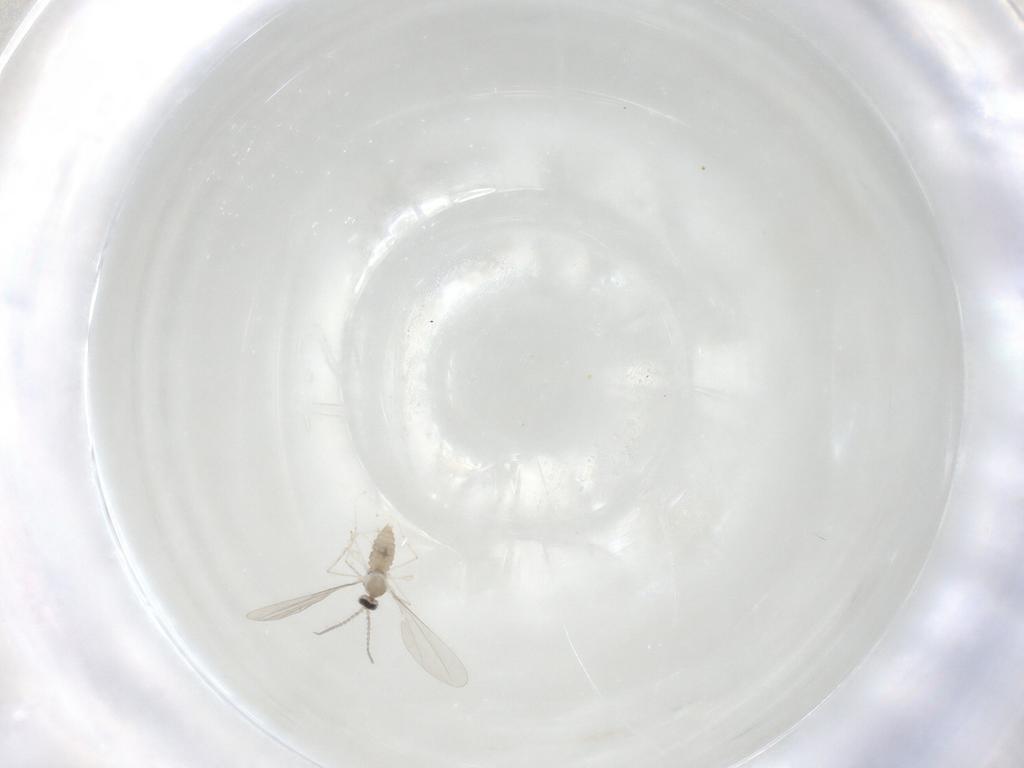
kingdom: Animalia
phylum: Arthropoda
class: Insecta
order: Diptera
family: Cecidomyiidae
